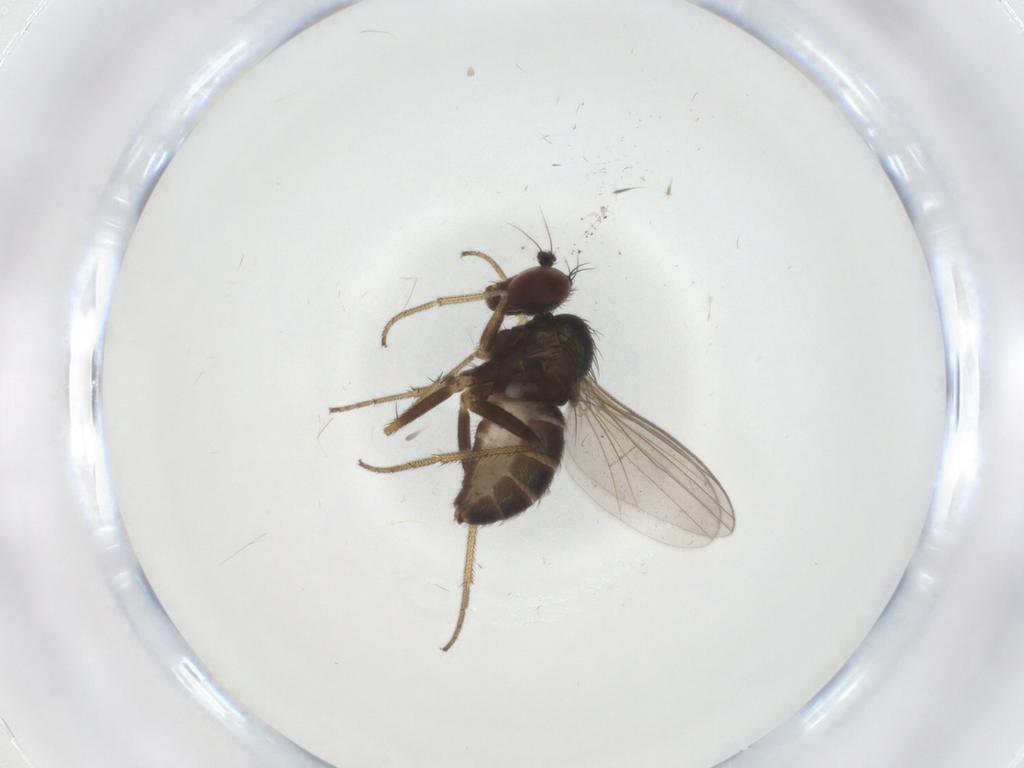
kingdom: Animalia
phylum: Arthropoda
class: Insecta
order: Diptera
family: Dolichopodidae
